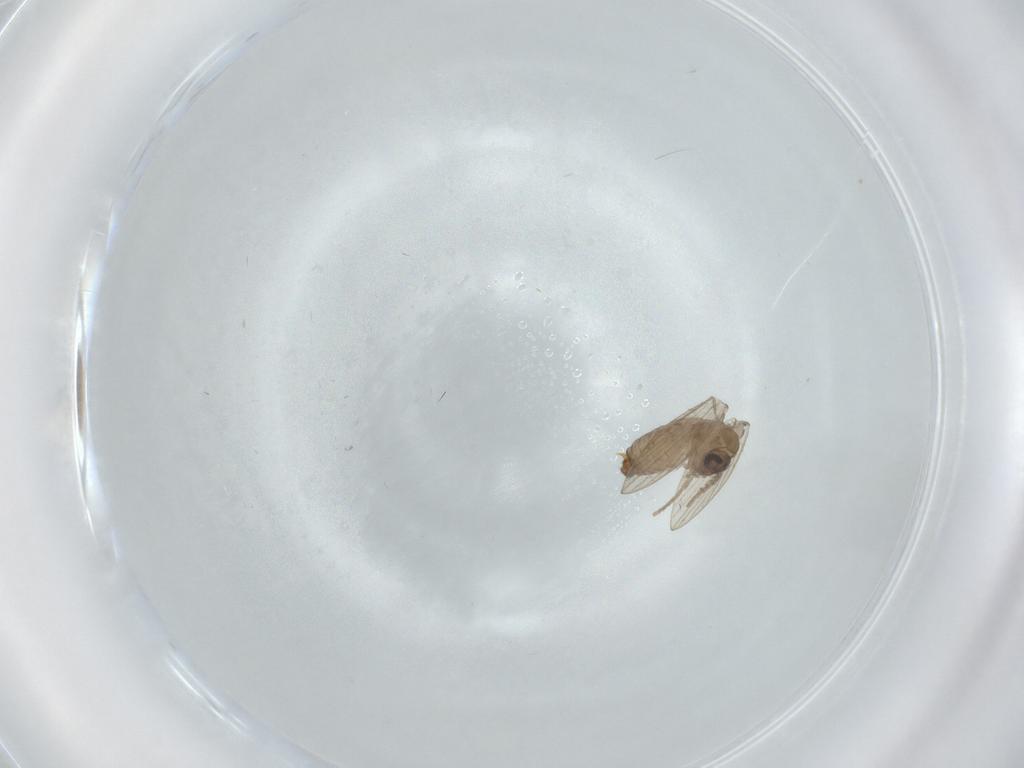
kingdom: Animalia
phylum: Arthropoda
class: Insecta
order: Diptera
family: Psychodidae
